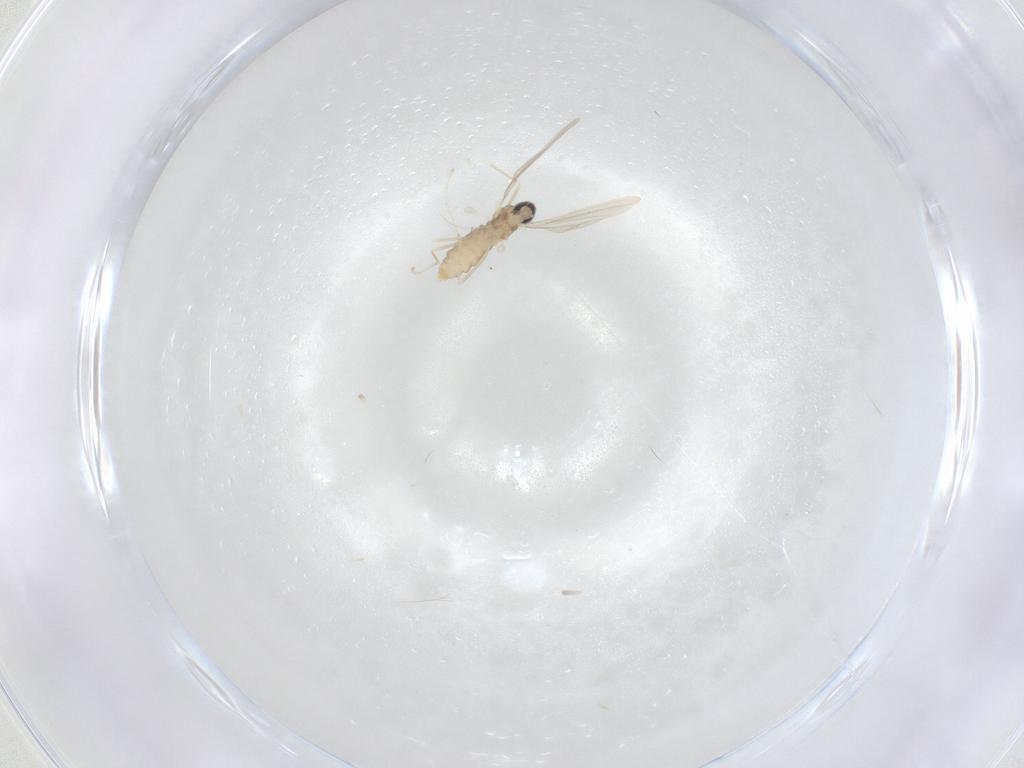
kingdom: Animalia
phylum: Arthropoda
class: Insecta
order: Diptera
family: Cecidomyiidae
